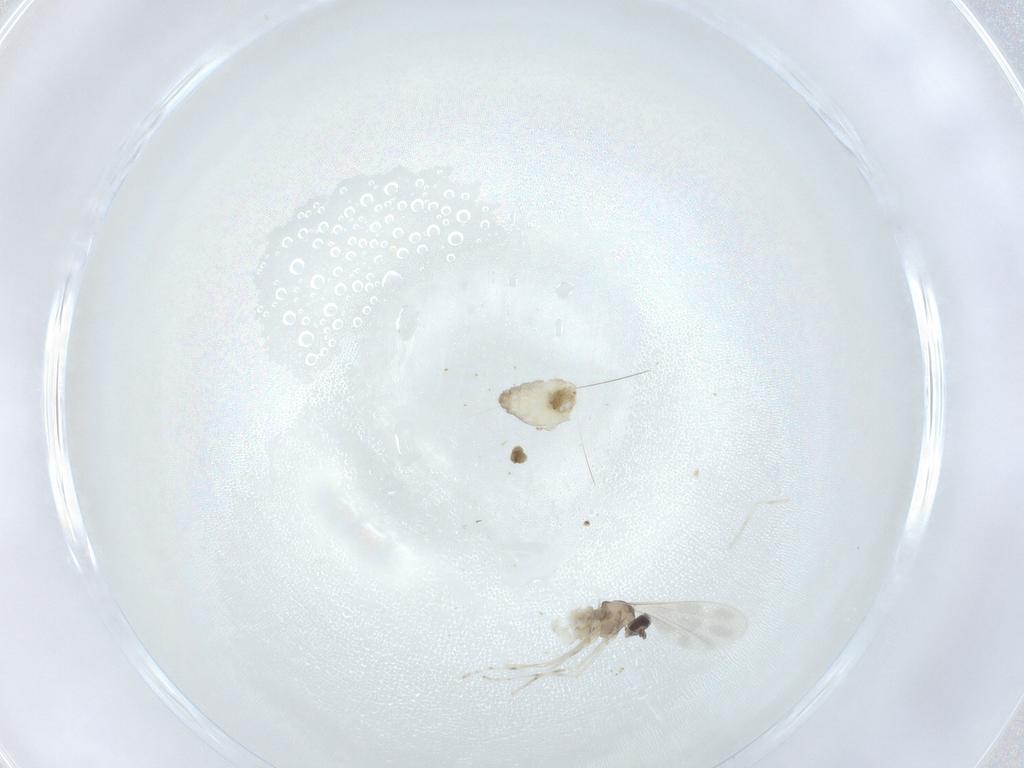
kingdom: Animalia
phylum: Arthropoda
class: Insecta
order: Diptera
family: Cecidomyiidae
